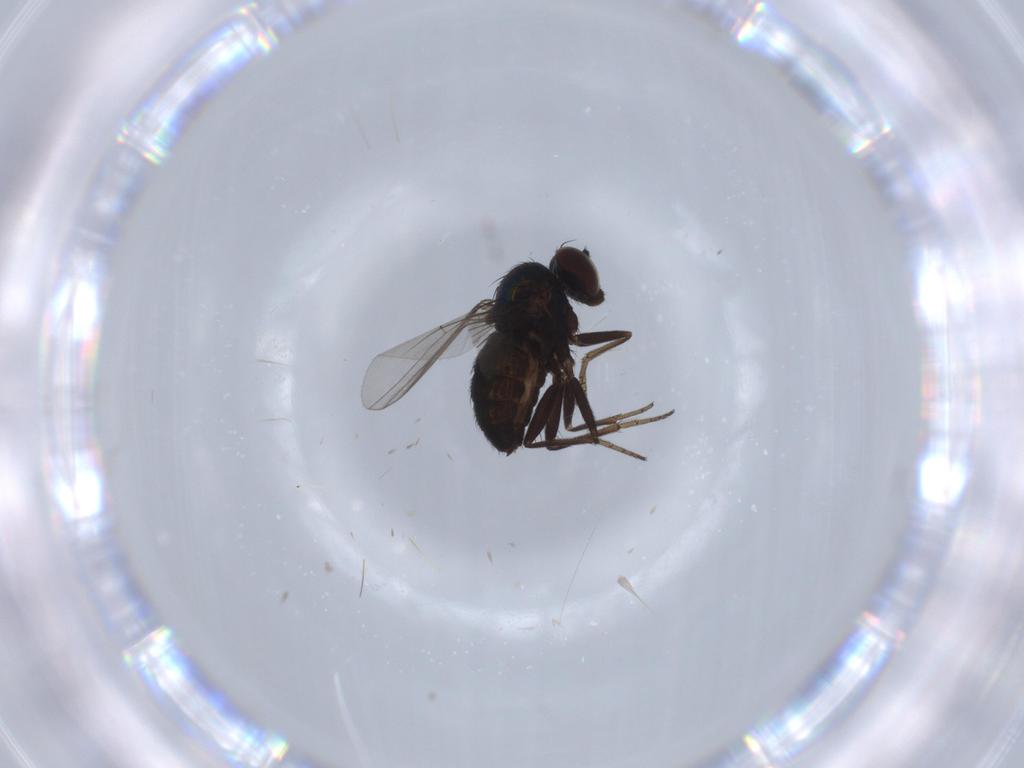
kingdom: Animalia
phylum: Arthropoda
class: Insecta
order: Diptera
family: Dolichopodidae
